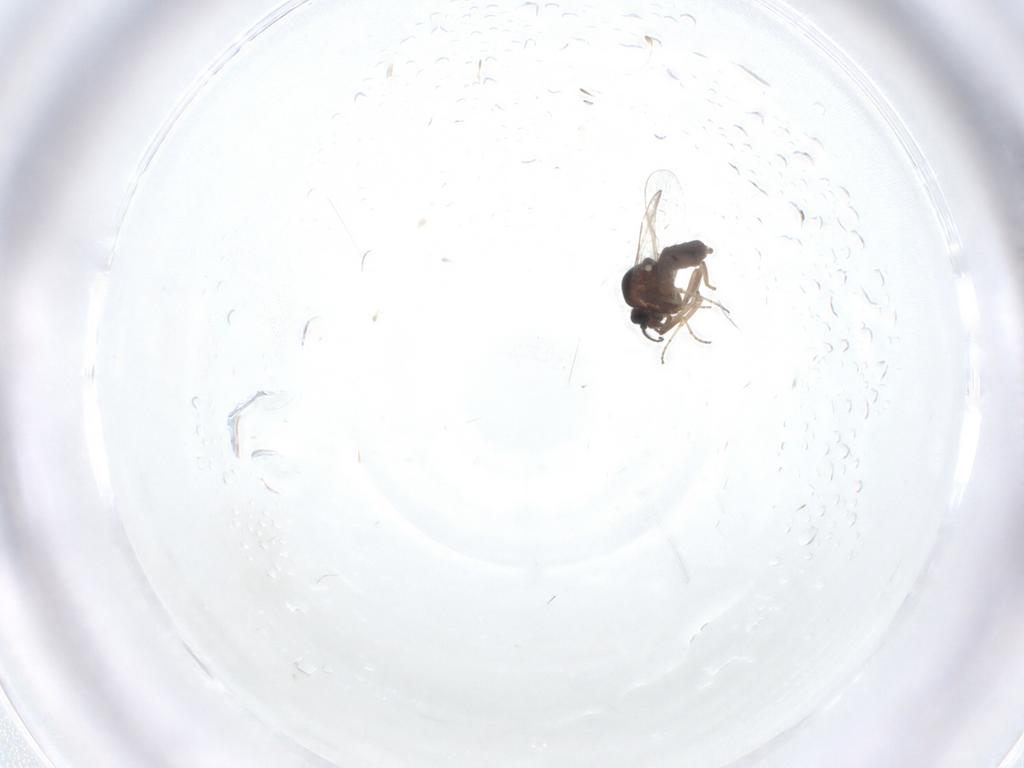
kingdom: Animalia
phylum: Arthropoda
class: Insecta
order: Diptera
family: Ceratopogonidae
